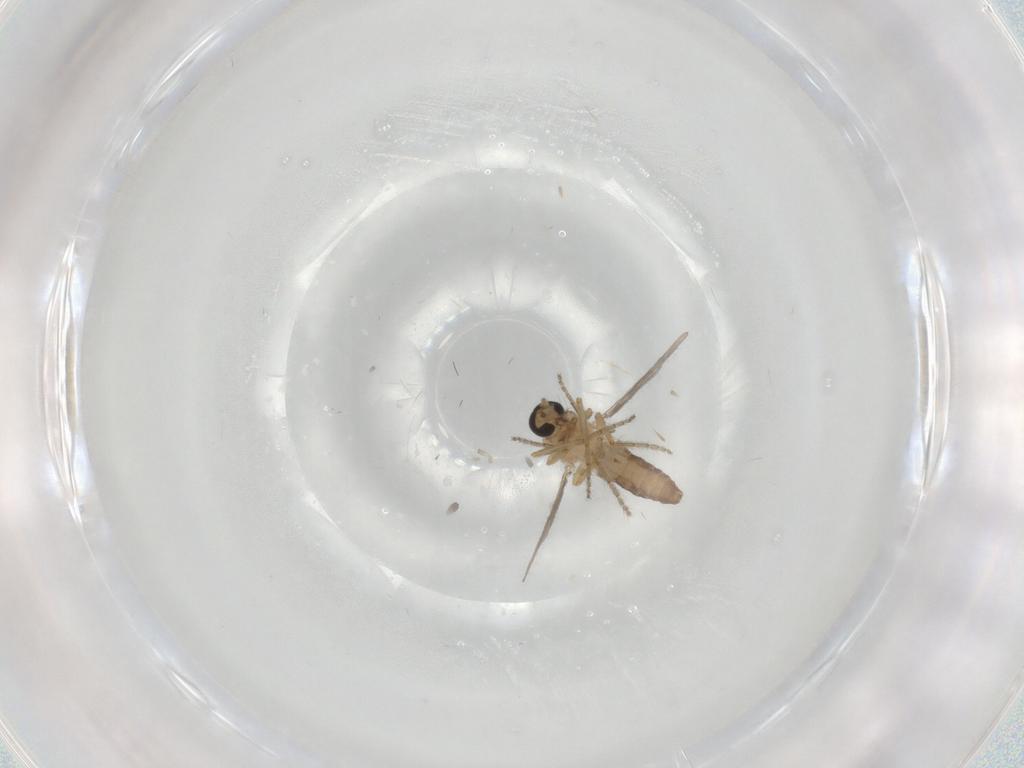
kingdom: Animalia
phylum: Arthropoda
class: Insecta
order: Diptera
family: Ceratopogonidae
